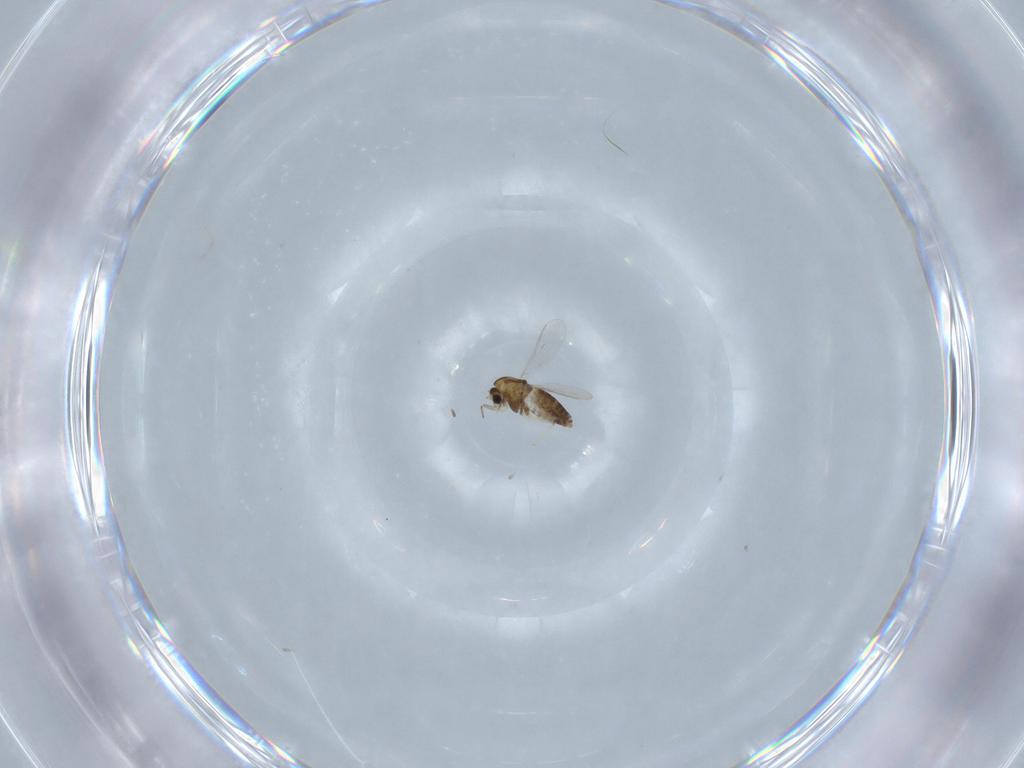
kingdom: Animalia
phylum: Arthropoda
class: Insecta
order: Diptera
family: Chironomidae
